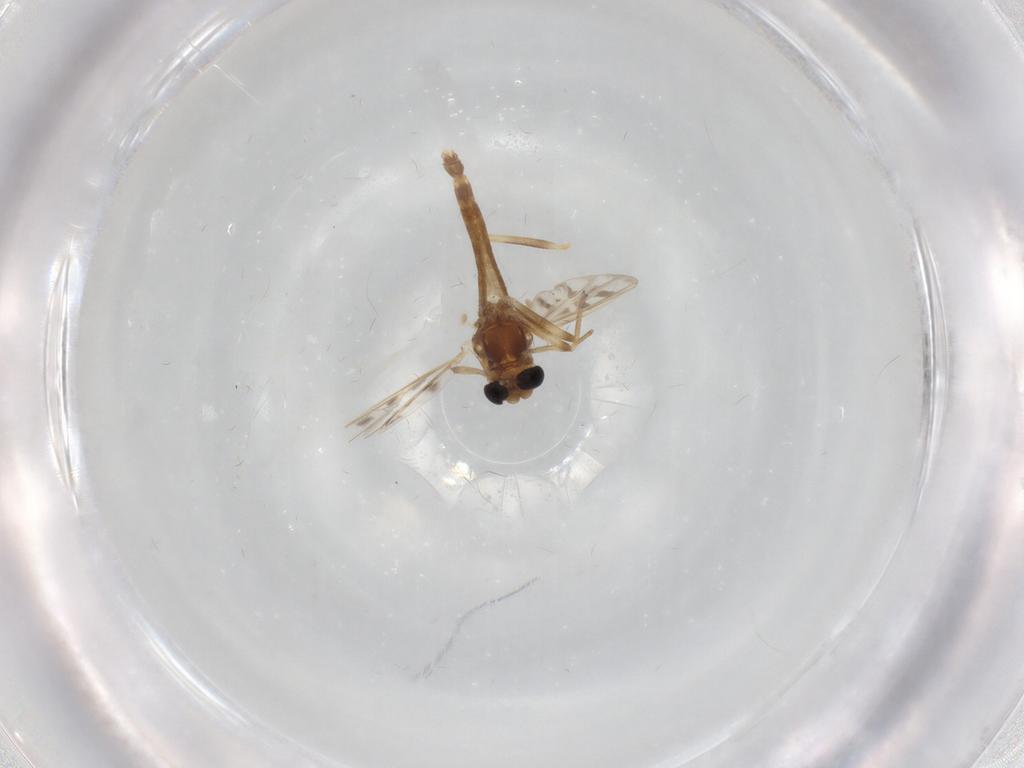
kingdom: Animalia
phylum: Arthropoda
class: Insecta
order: Diptera
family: Chironomidae
